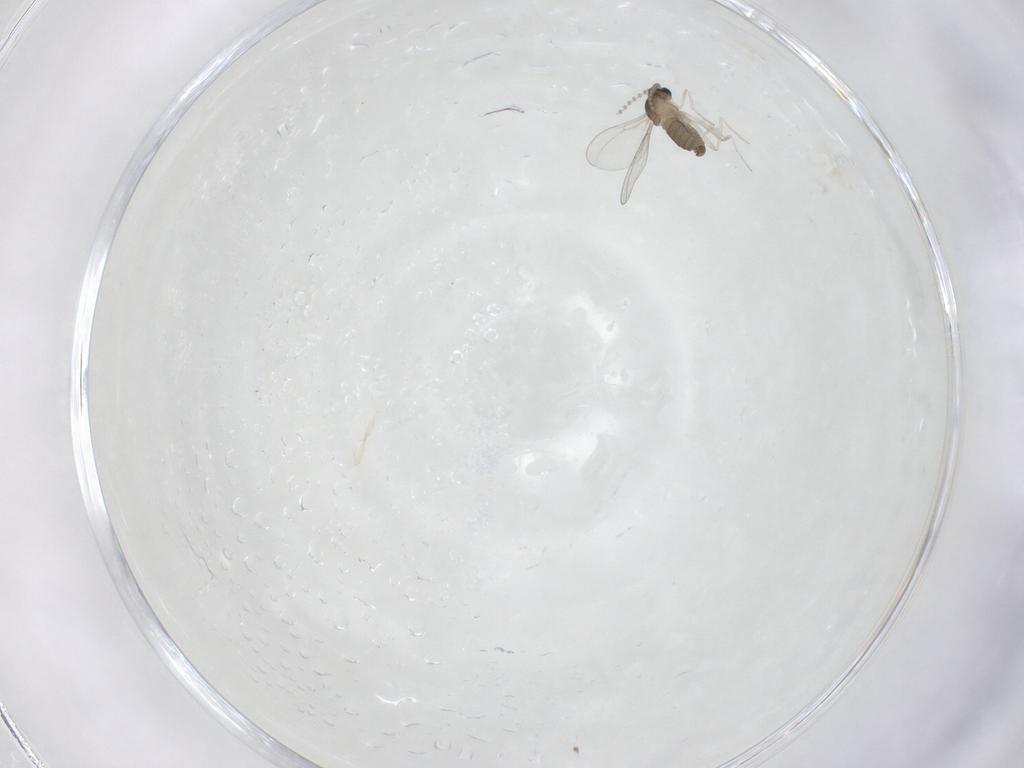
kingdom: Animalia
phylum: Arthropoda
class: Insecta
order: Diptera
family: Cecidomyiidae
